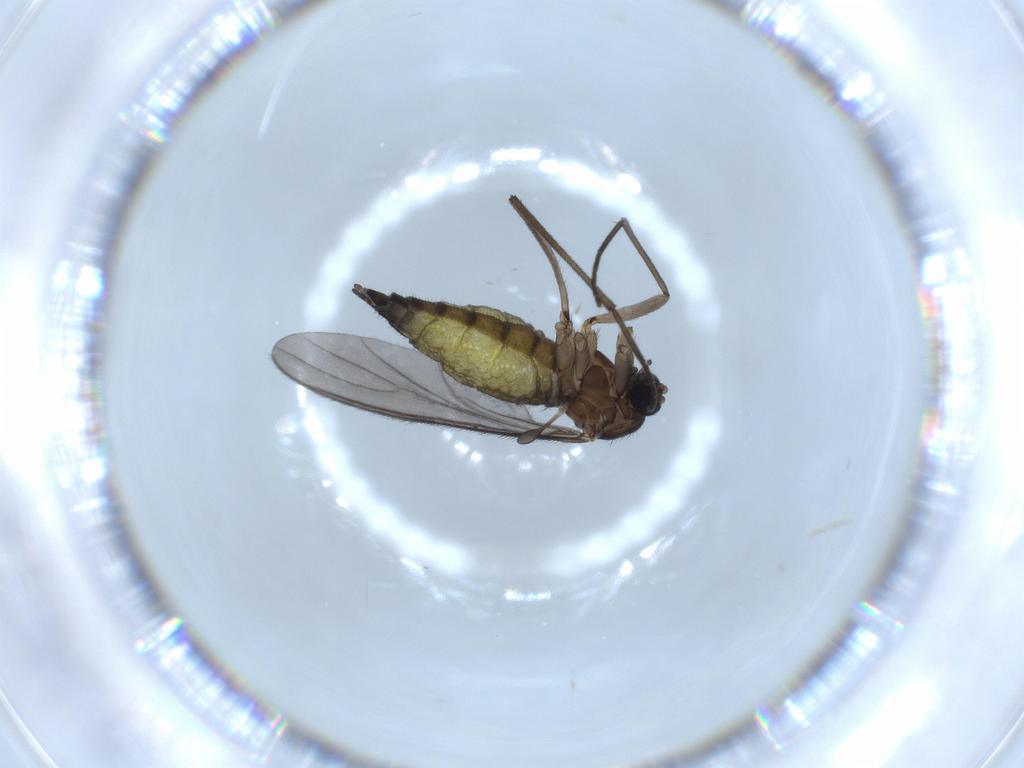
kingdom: Animalia
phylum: Arthropoda
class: Insecta
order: Diptera
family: Sciaridae
